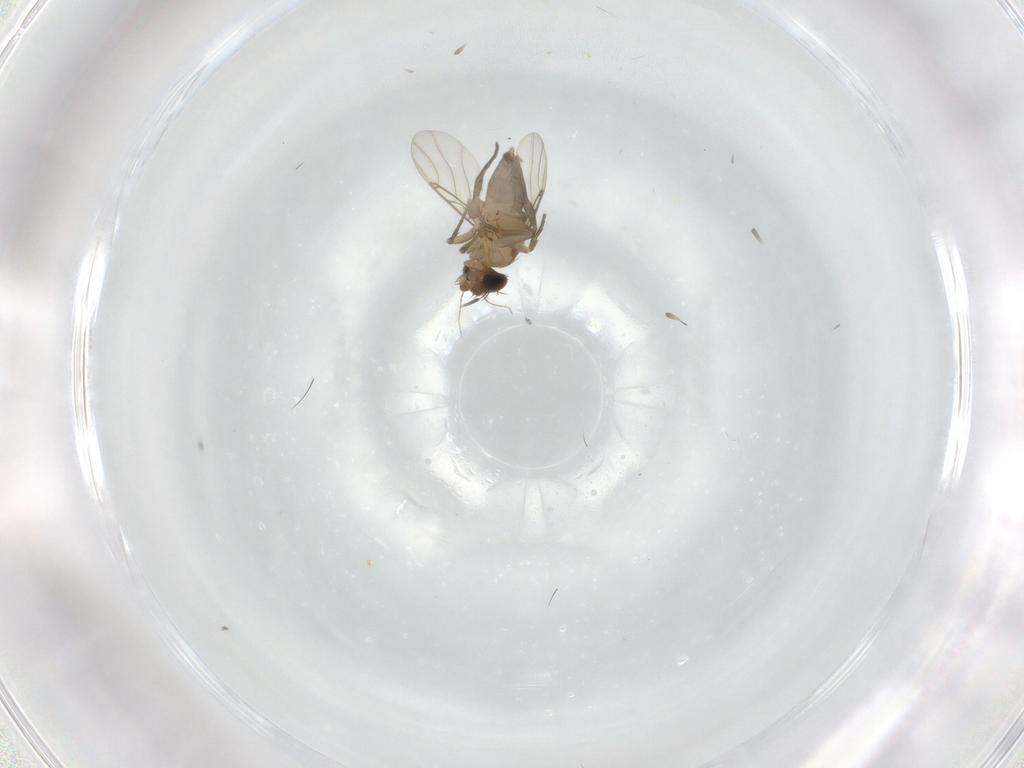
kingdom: Animalia
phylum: Arthropoda
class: Insecta
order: Diptera
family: Phoridae
